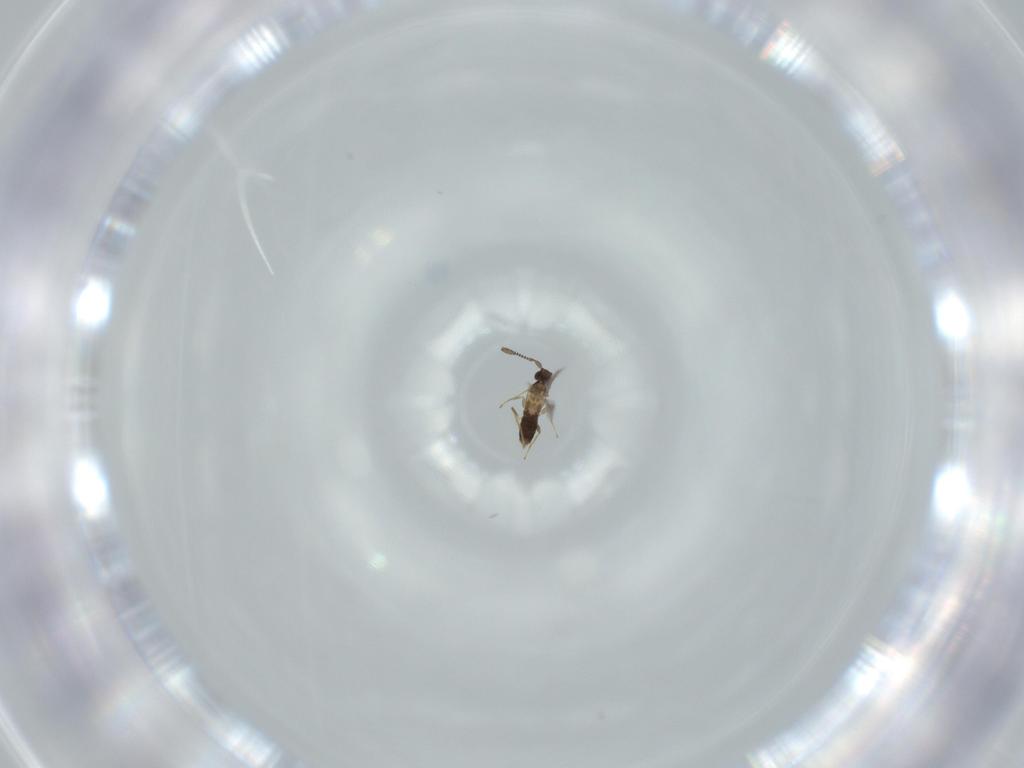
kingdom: Animalia
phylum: Arthropoda
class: Insecta
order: Hymenoptera
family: Mymaridae
